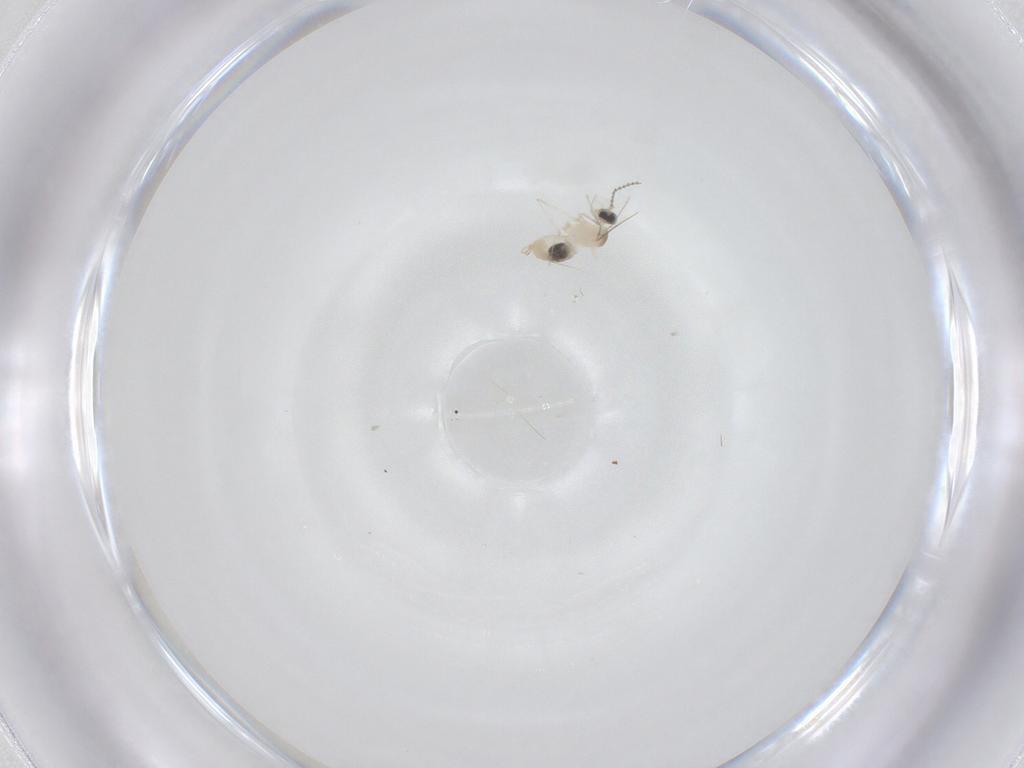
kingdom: Animalia
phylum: Arthropoda
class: Insecta
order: Diptera
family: Cecidomyiidae
